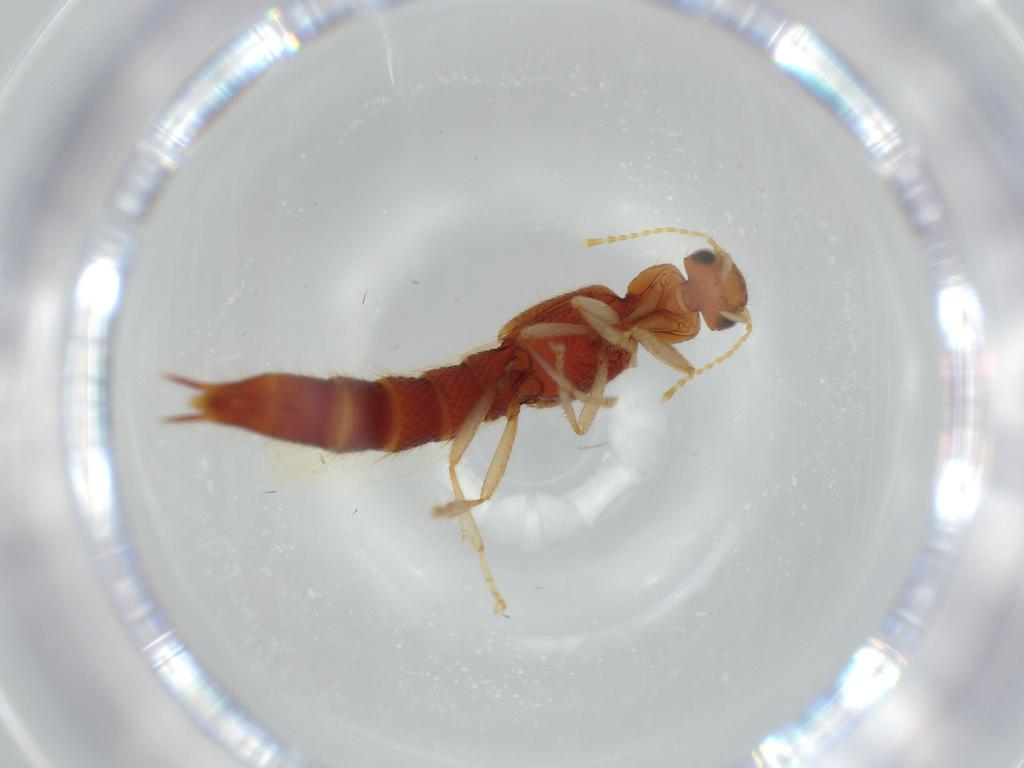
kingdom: Animalia
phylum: Arthropoda
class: Insecta
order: Coleoptera
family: Staphylinidae
